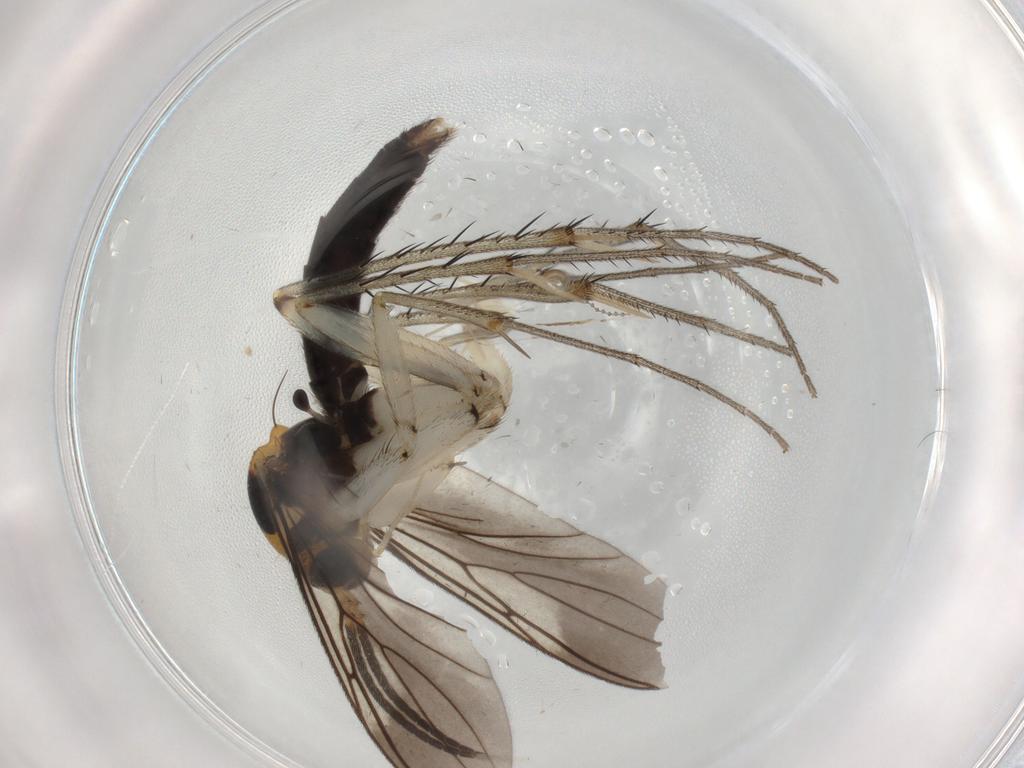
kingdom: Animalia
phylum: Arthropoda
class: Insecta
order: Diptera
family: Mycetophilidae
